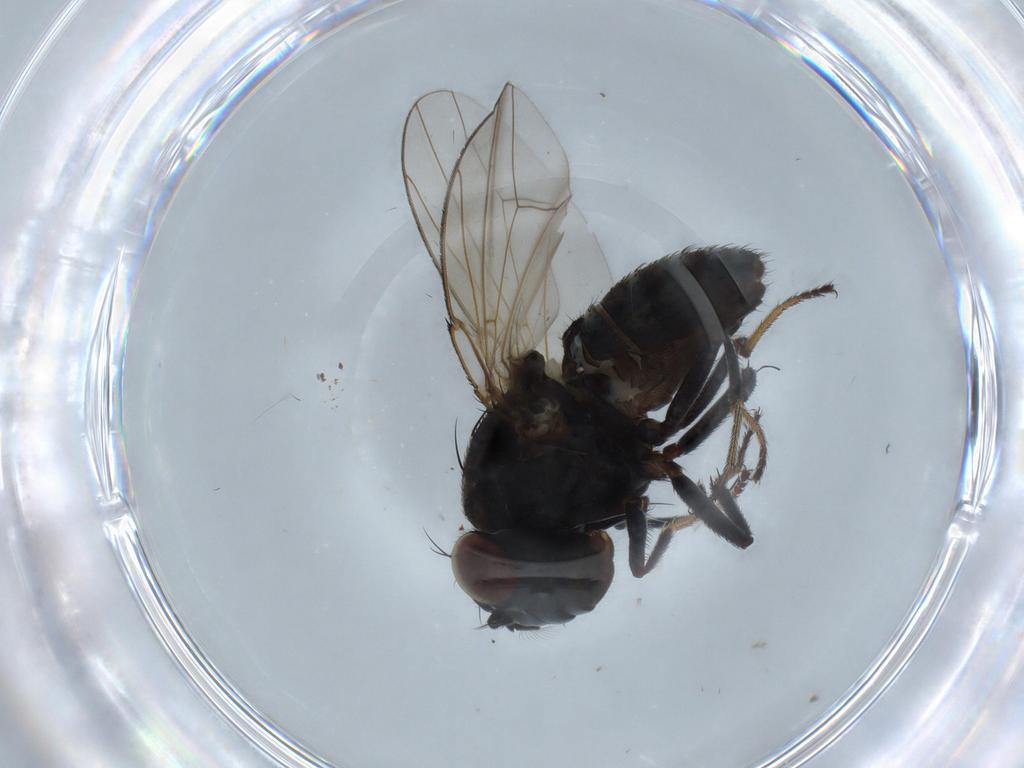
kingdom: Animalia
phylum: Arthropoda
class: Insecta
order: Diptera
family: Ephydridae
